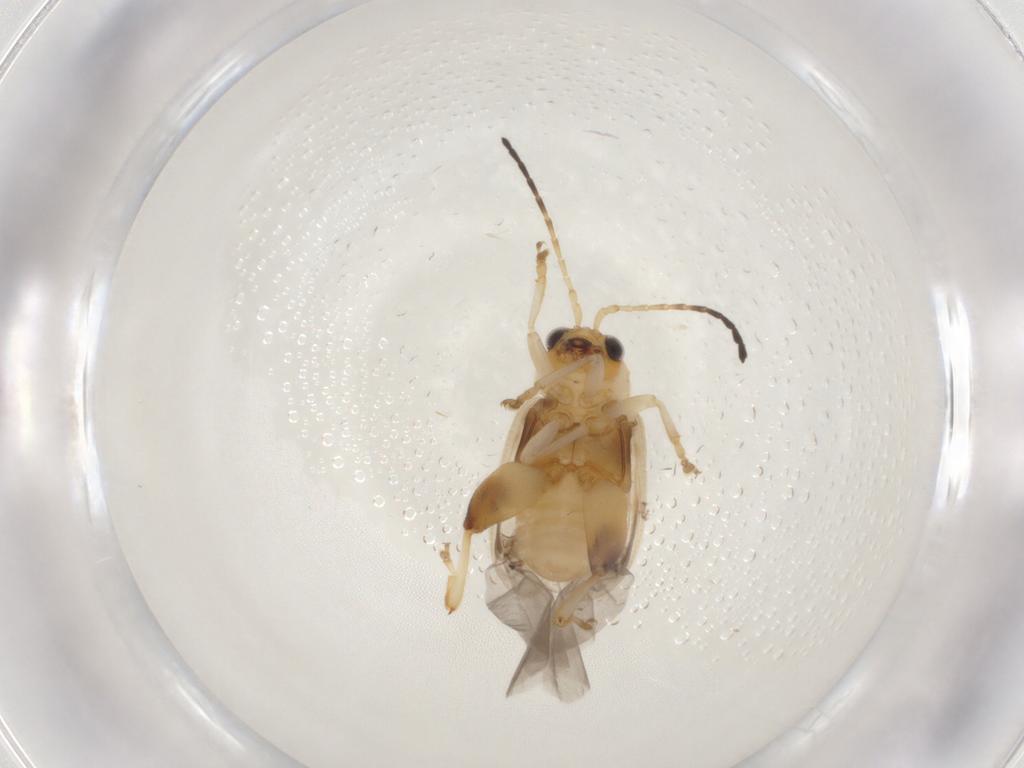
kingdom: Animalia
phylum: Arthropoda
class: Insecta
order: Coleoptera
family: Chrysomelidae
